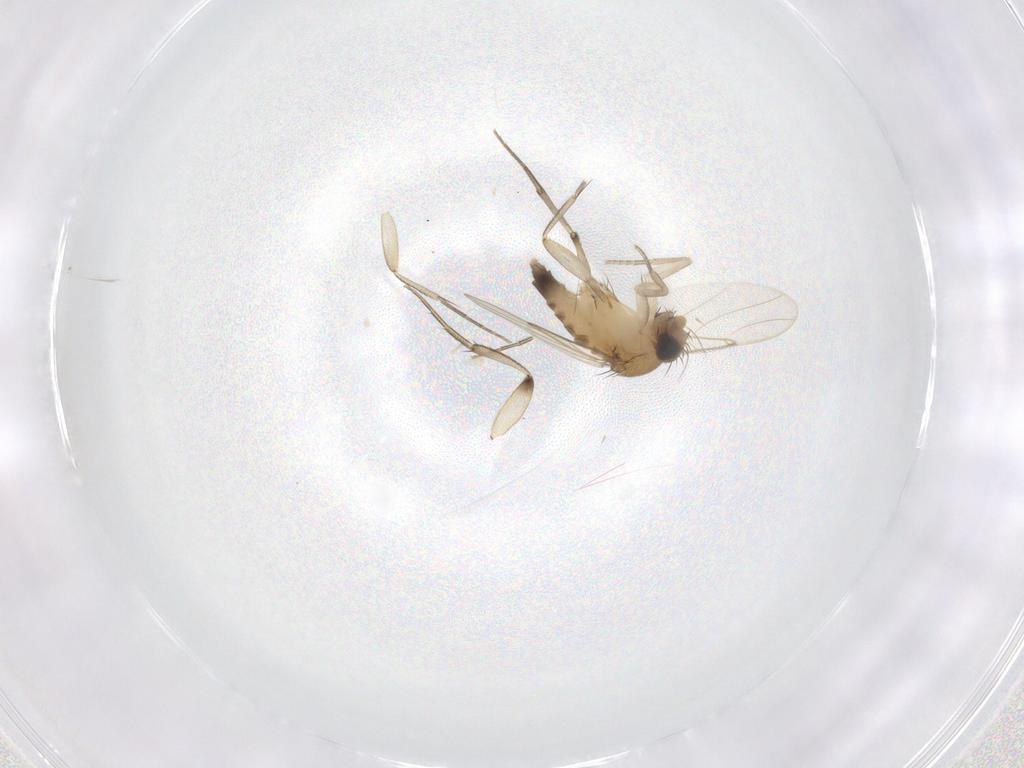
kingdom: Animalia
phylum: Arthropoda
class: Insecta
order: Diptera
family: Phoridae
